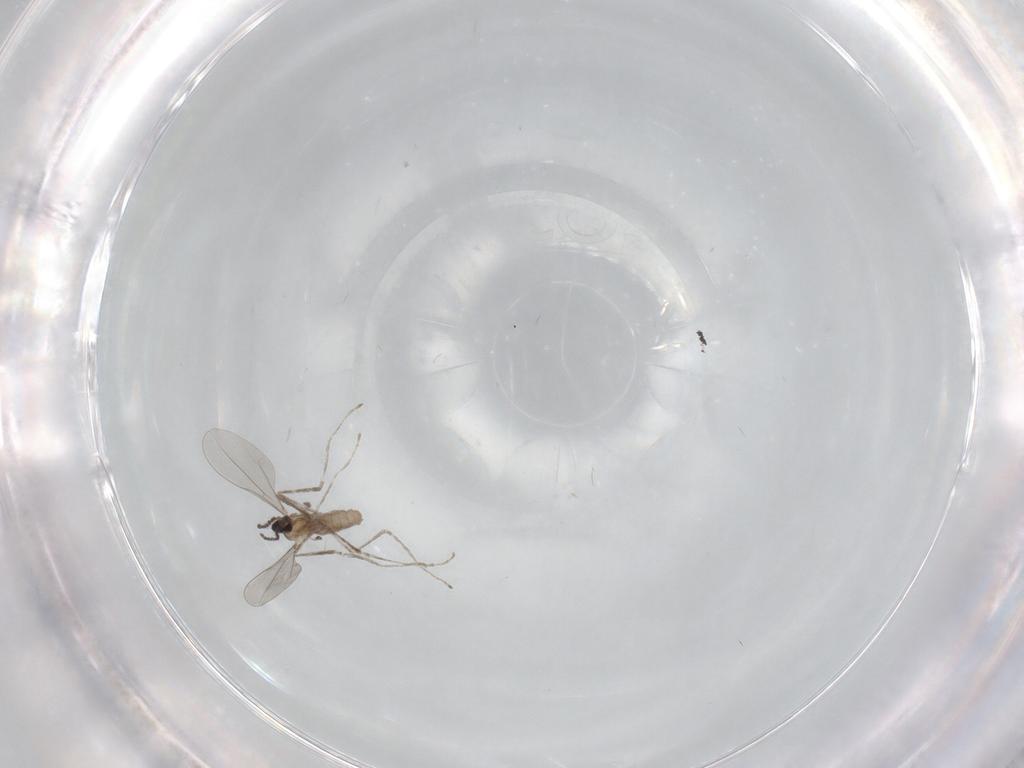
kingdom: Animalia
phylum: Arthropoda
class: Insecta
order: Diptera
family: Cecidomyiidae
